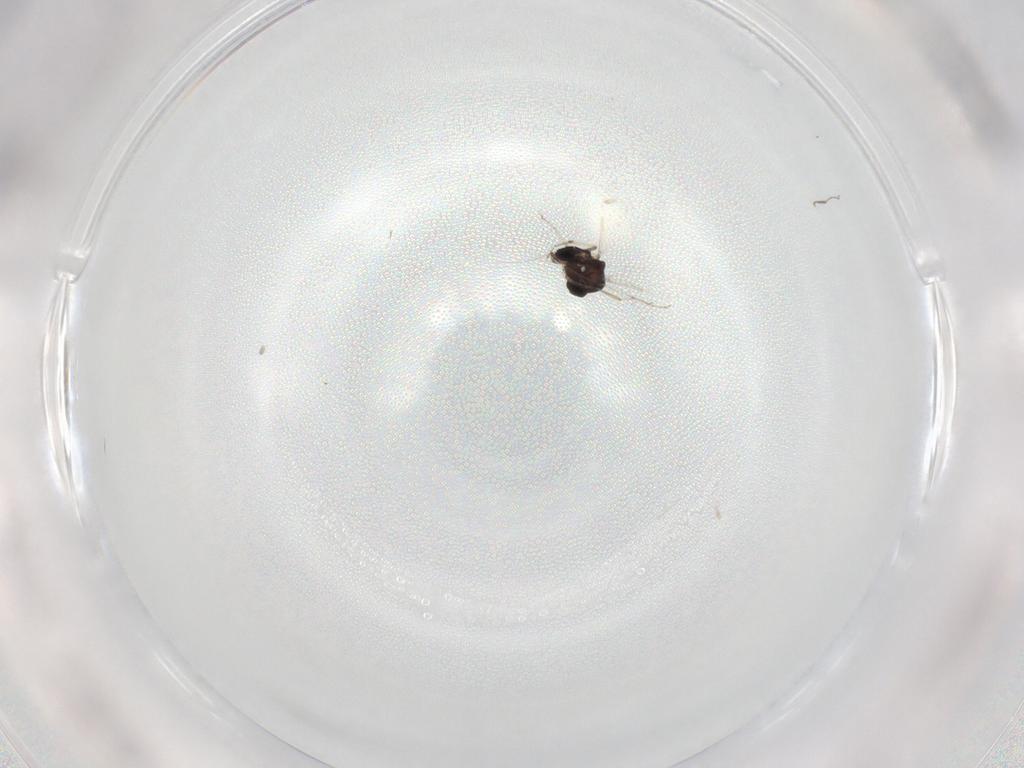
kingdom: Animalia
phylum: Arthropoda
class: Insecta
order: Diptera
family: Ceratopogonidae
